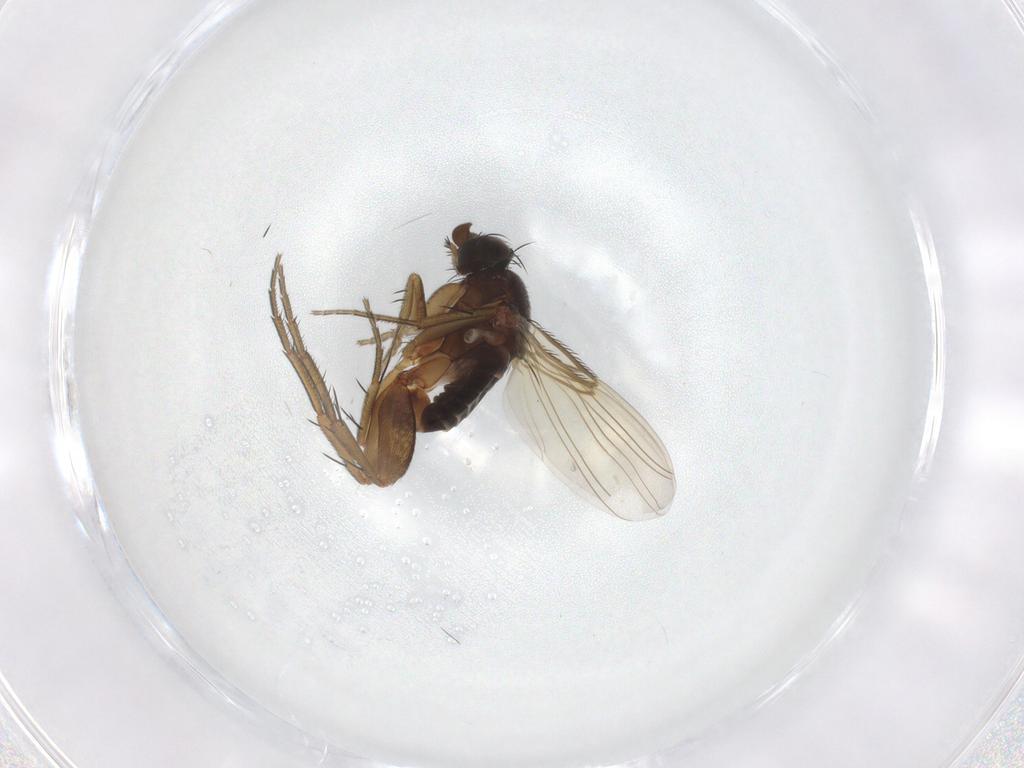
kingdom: Animalia
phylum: Arthropoda
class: Insecta
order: Diptera
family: Phoridae
